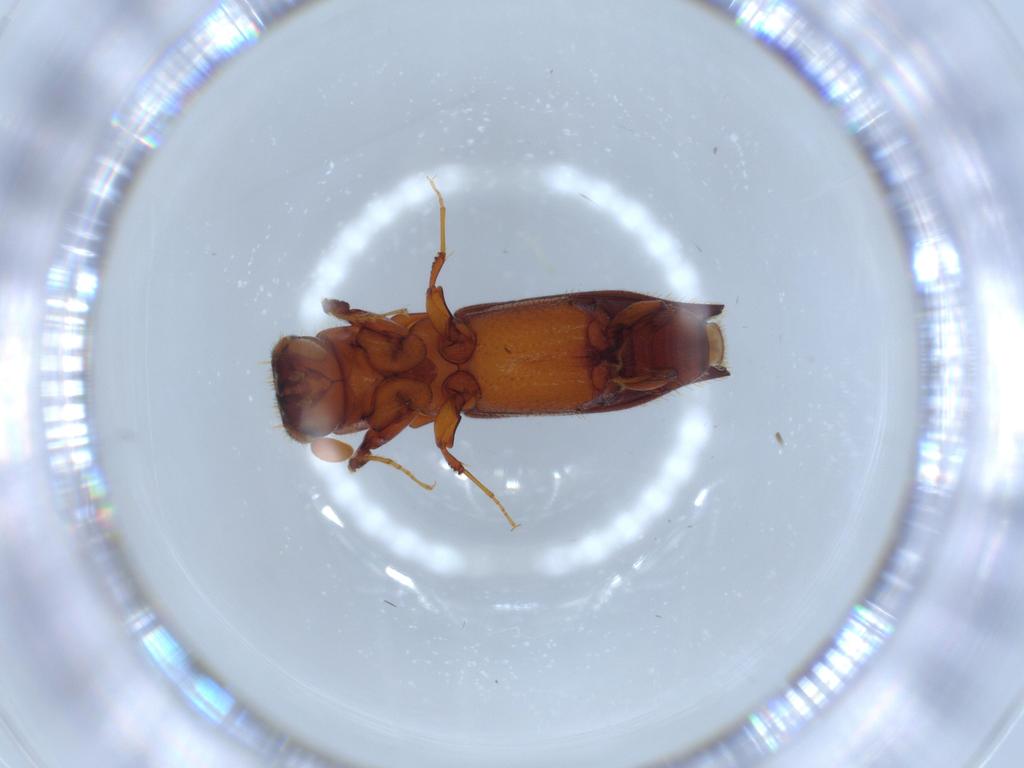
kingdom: Animalia
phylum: Arthropoda
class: Insecta
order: Coleoptera
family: Curculionidae
